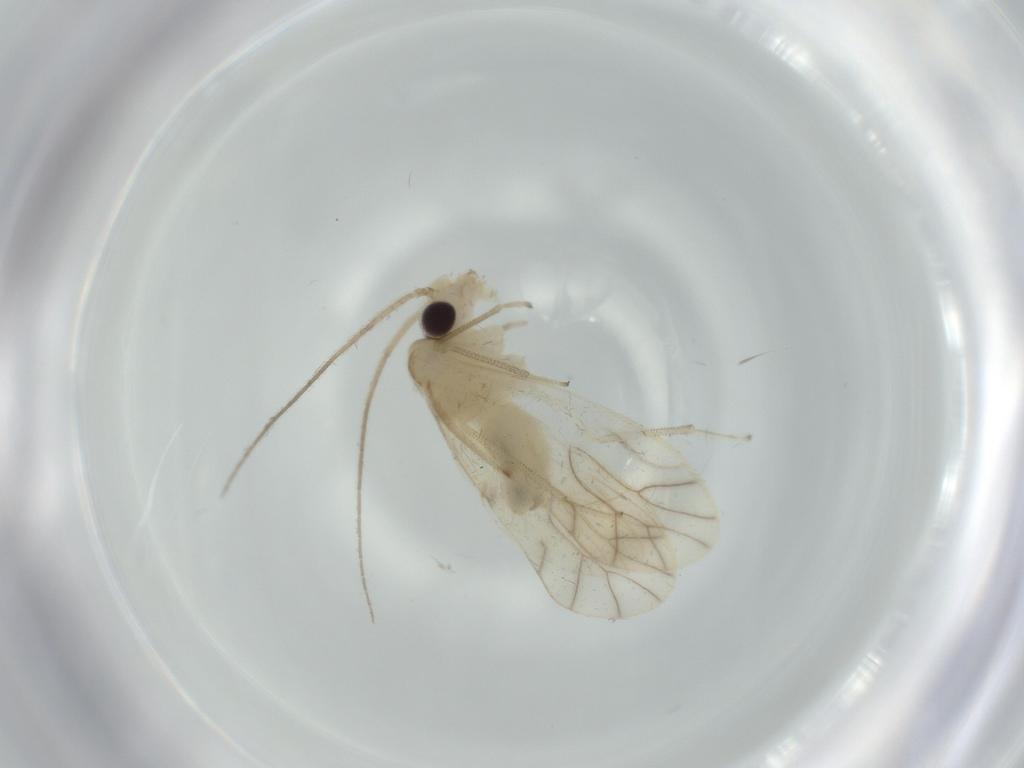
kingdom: Animalia
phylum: Arthropoda
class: Insecta
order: Psocodea
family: Caeciliusidae
